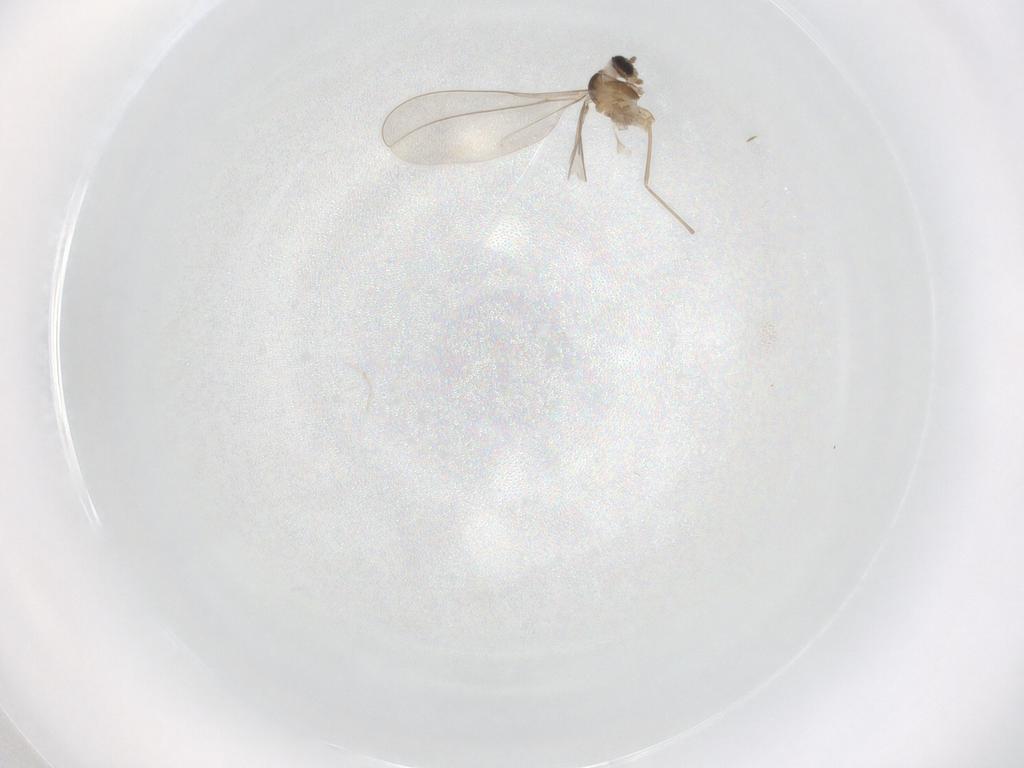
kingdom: Animalia
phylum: Arthropoda
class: Insecta
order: Diptera
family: Cecidomyiidae
